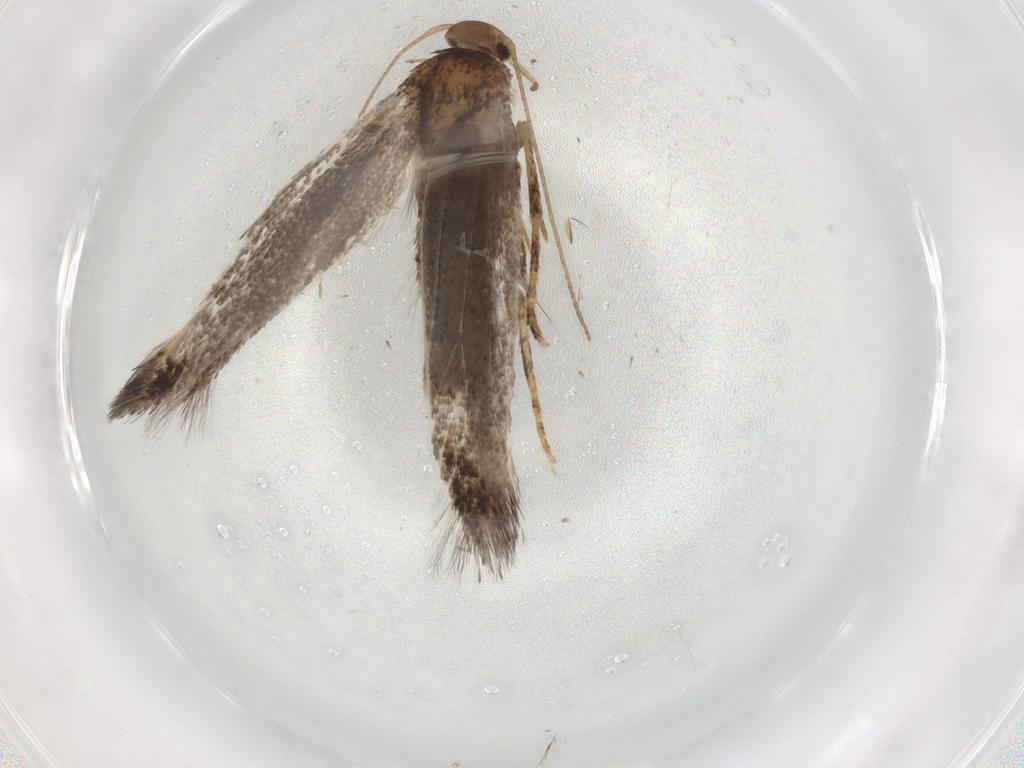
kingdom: Animalia
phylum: Arthropoda
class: Insecta
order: Lepidoptera
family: Elachistidae
